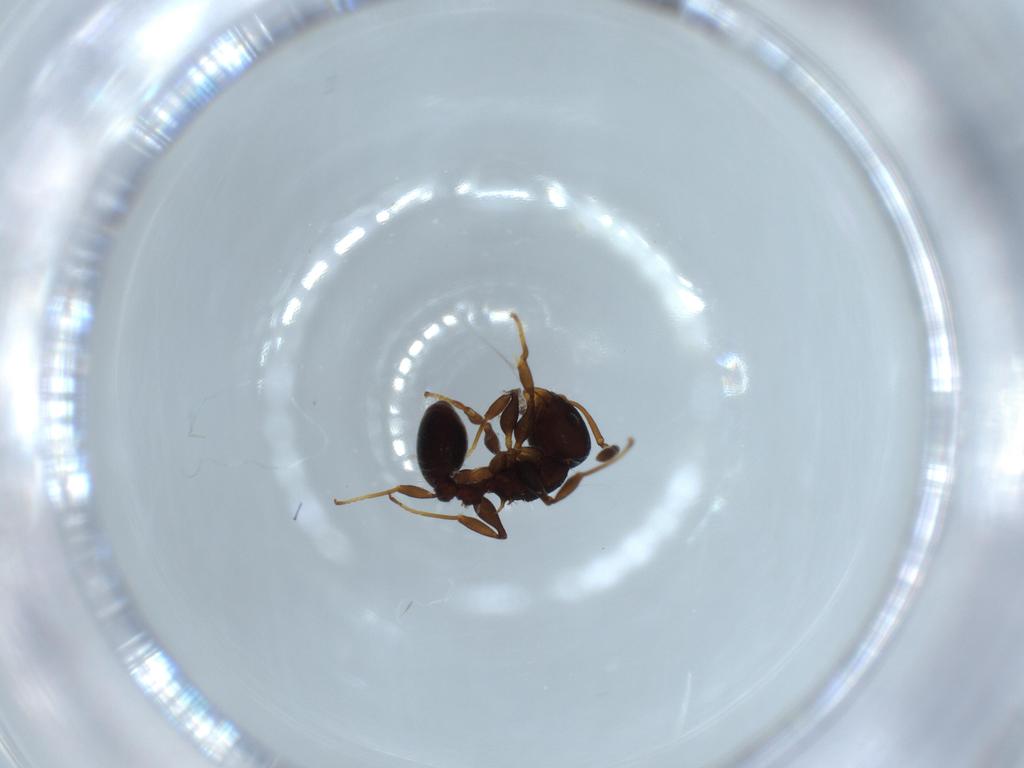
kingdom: Animalia
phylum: Arthropoda
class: Insecta
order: Hymenoptera
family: Formicidae
